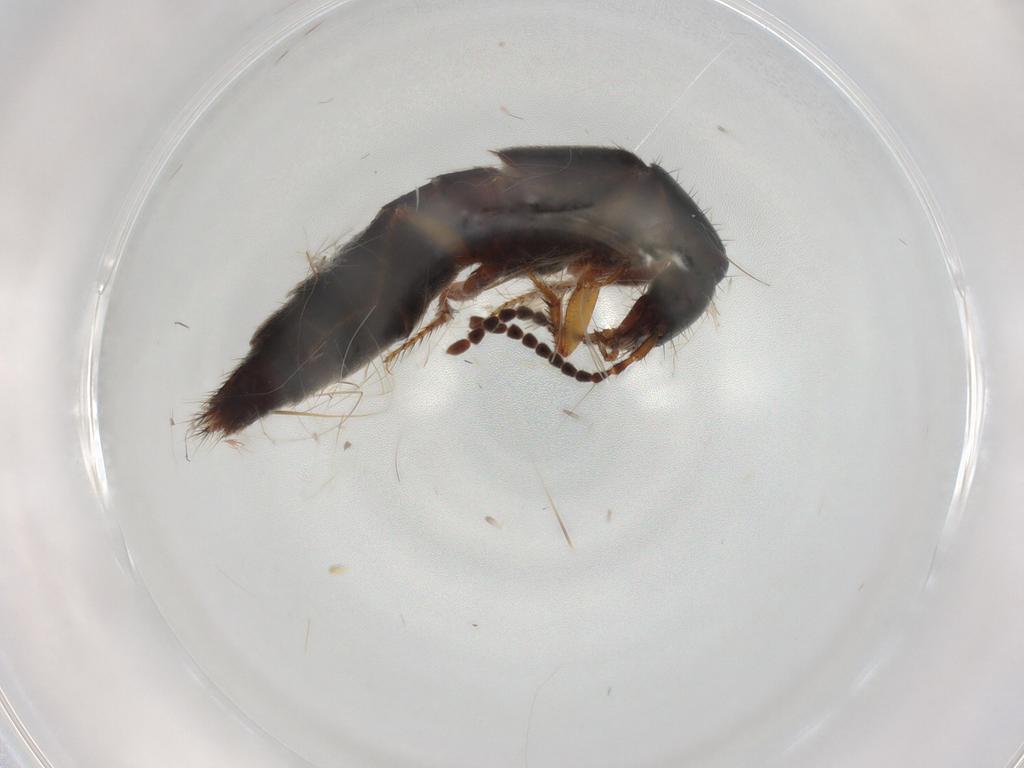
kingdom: Animalia
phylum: Arthropoda
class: Insecta
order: Coleoptera
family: Staphylinidae
